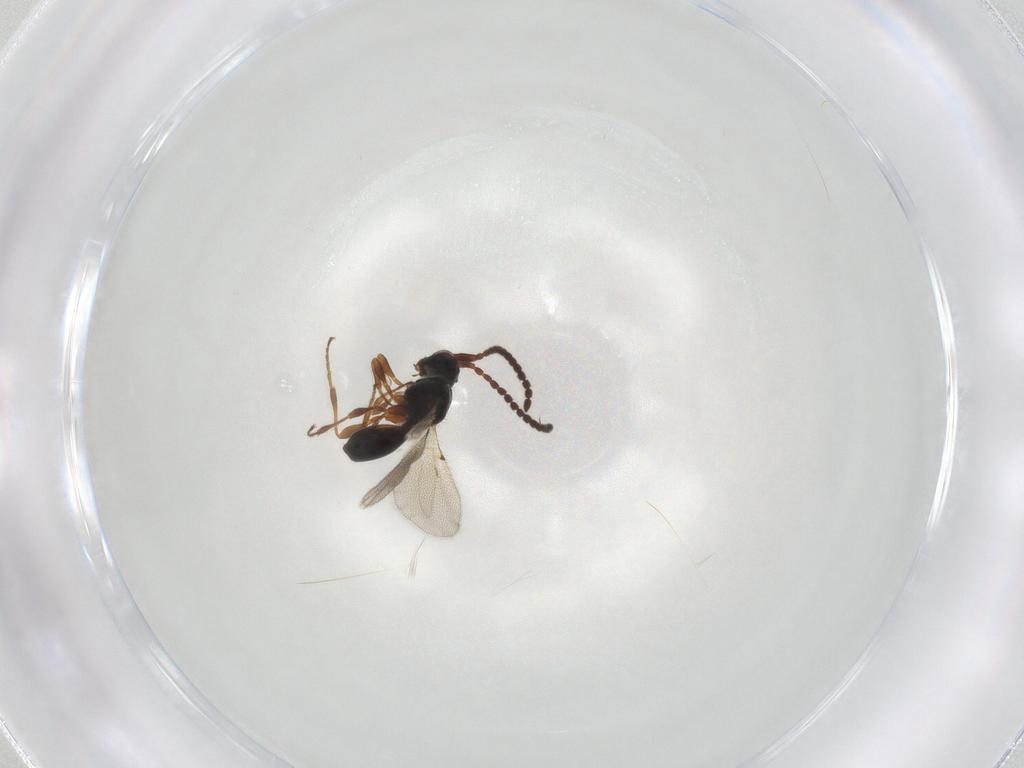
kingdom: Animalia
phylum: Arthropoda
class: Insecta
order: Hymenoptera
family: Diapriidae
